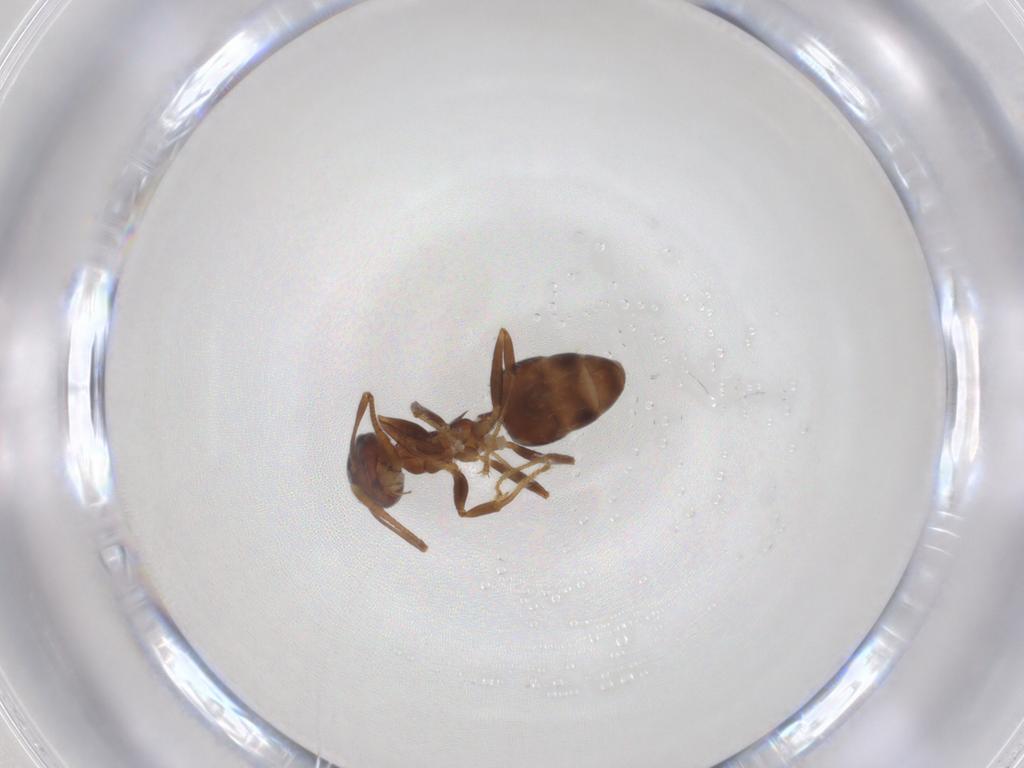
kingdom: Animalia
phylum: Arthropoda
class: Insecta
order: Hymenoptera
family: Formicidae
